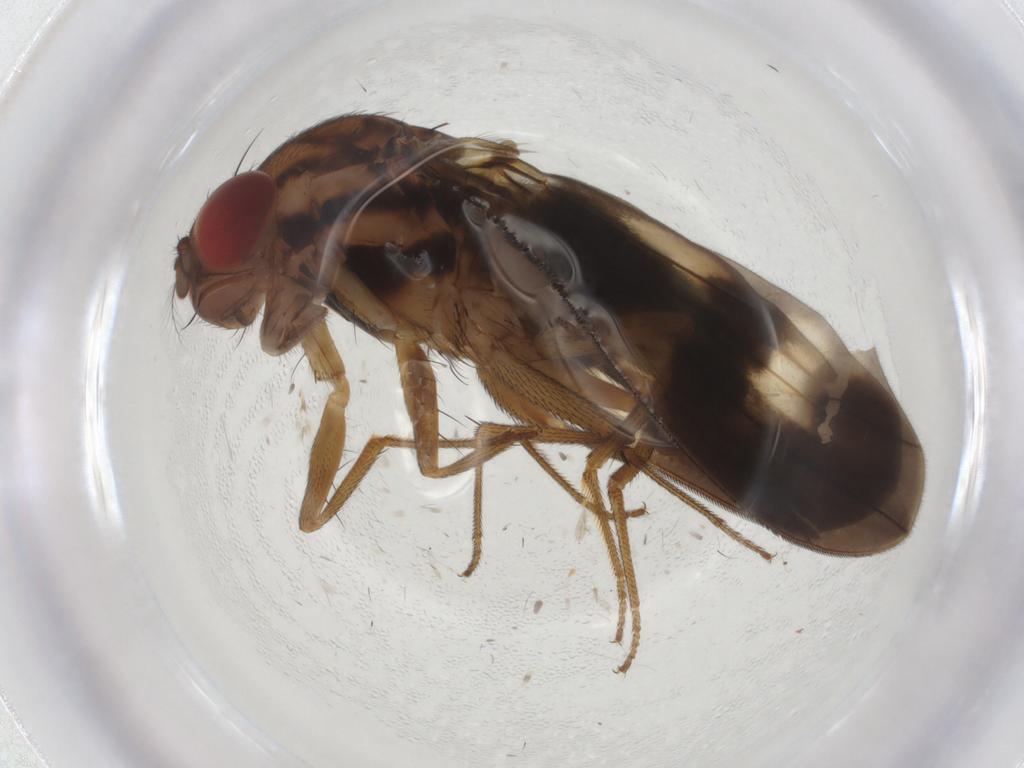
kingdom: Animalia
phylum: Arthropoda
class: Insecta
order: Diptera
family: Drosophilidae
